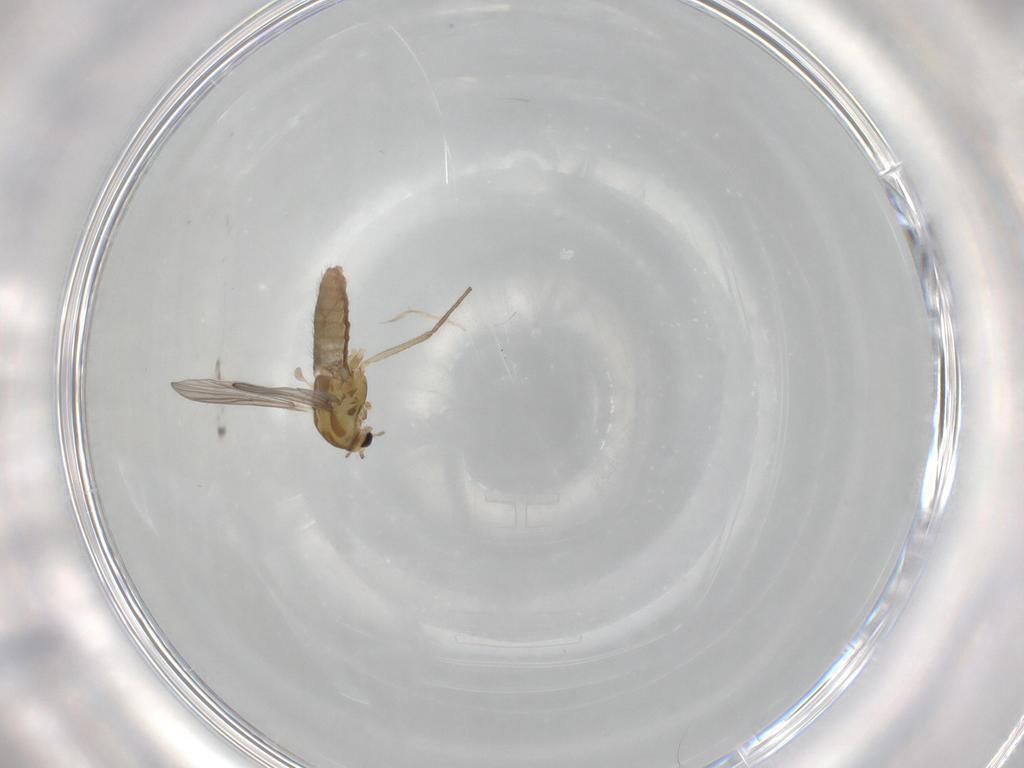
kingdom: Animalia
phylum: Arthropoda
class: Insecta
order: Diptera
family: Chironomidae
